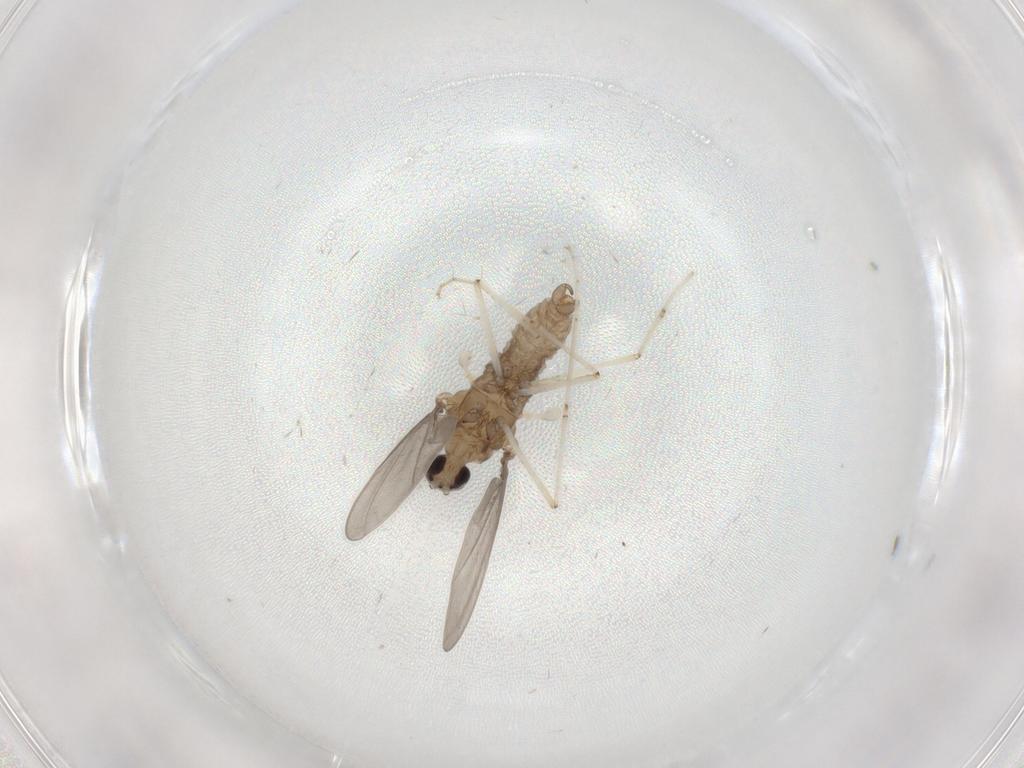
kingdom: Animalia
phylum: Arthropoda
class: Insecta
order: Diptera
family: Cecidomyiidae
